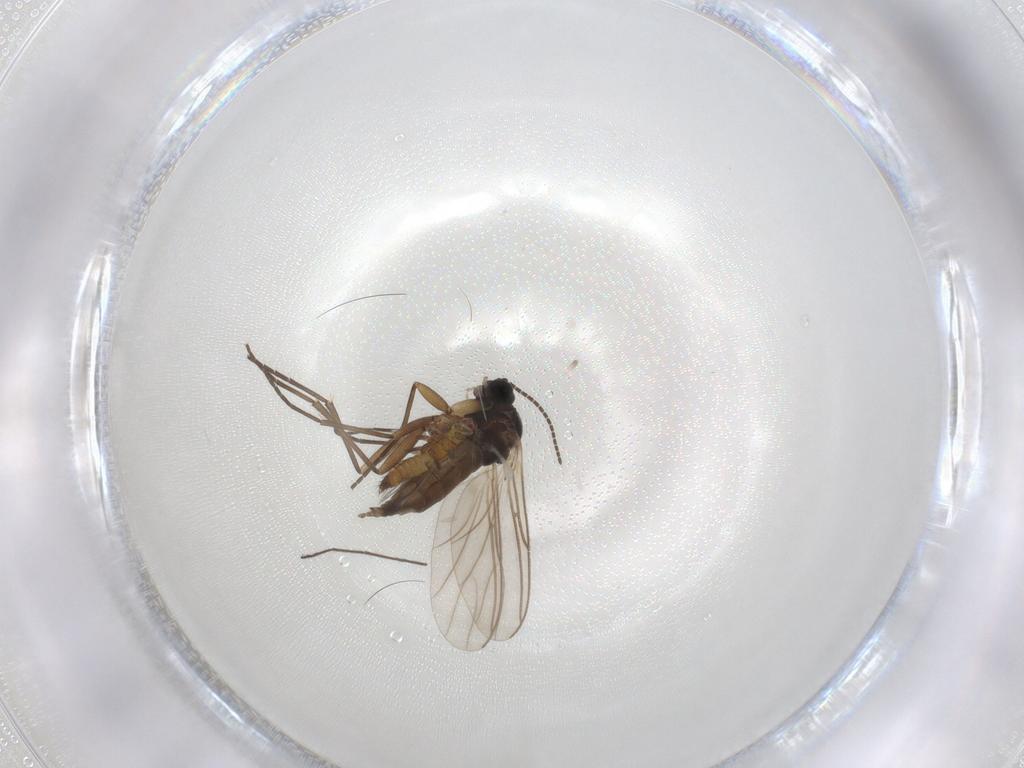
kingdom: Animalia
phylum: Arthropoda
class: Insecta
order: Diptera
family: Sciaridae
